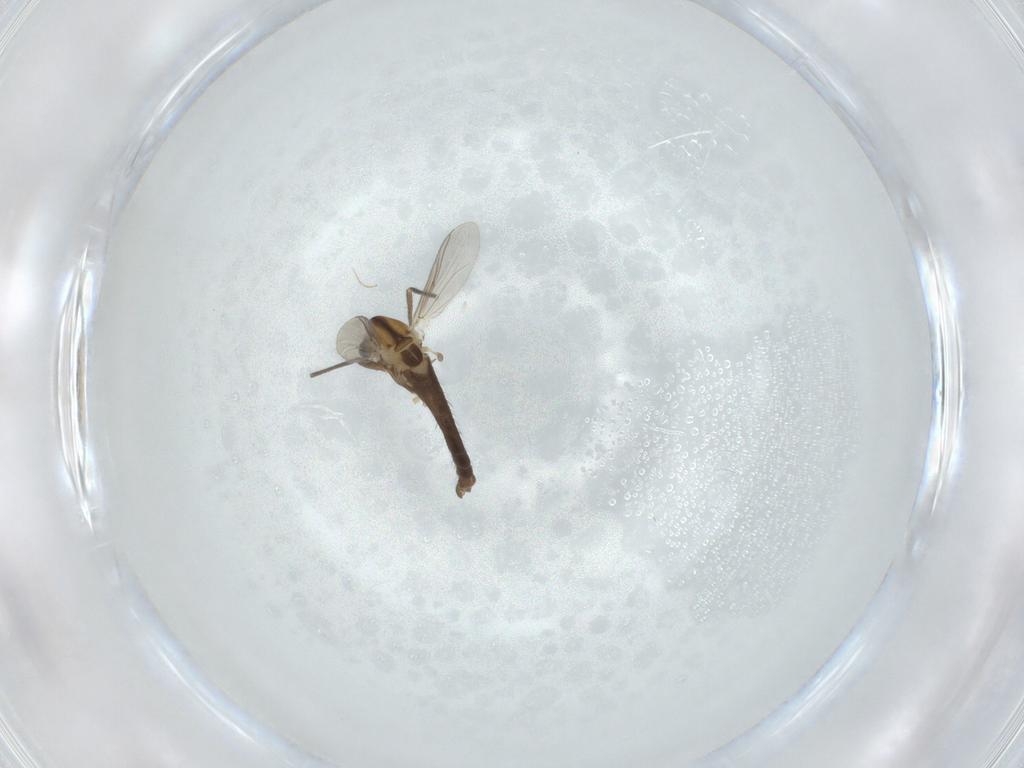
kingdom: Animalia
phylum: Arthropoda
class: Insecta
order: Diptera
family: Chironomidae
